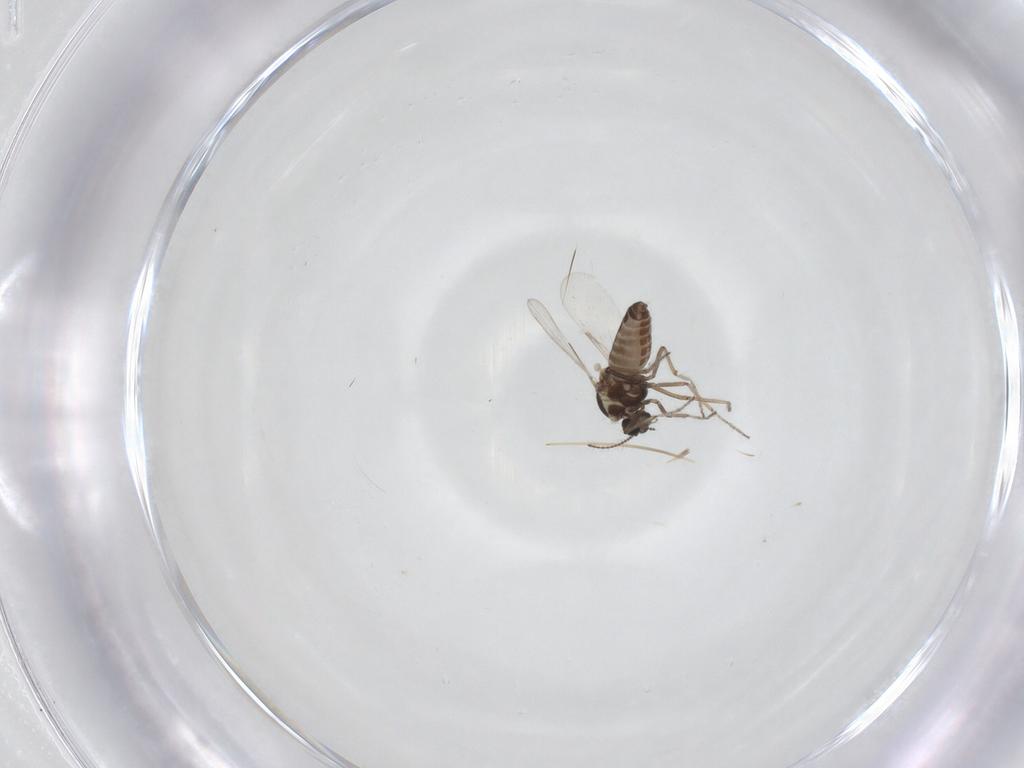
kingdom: Animalia
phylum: Arthropoda
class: Insecta
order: Diptera
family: Ceratopogonidae
